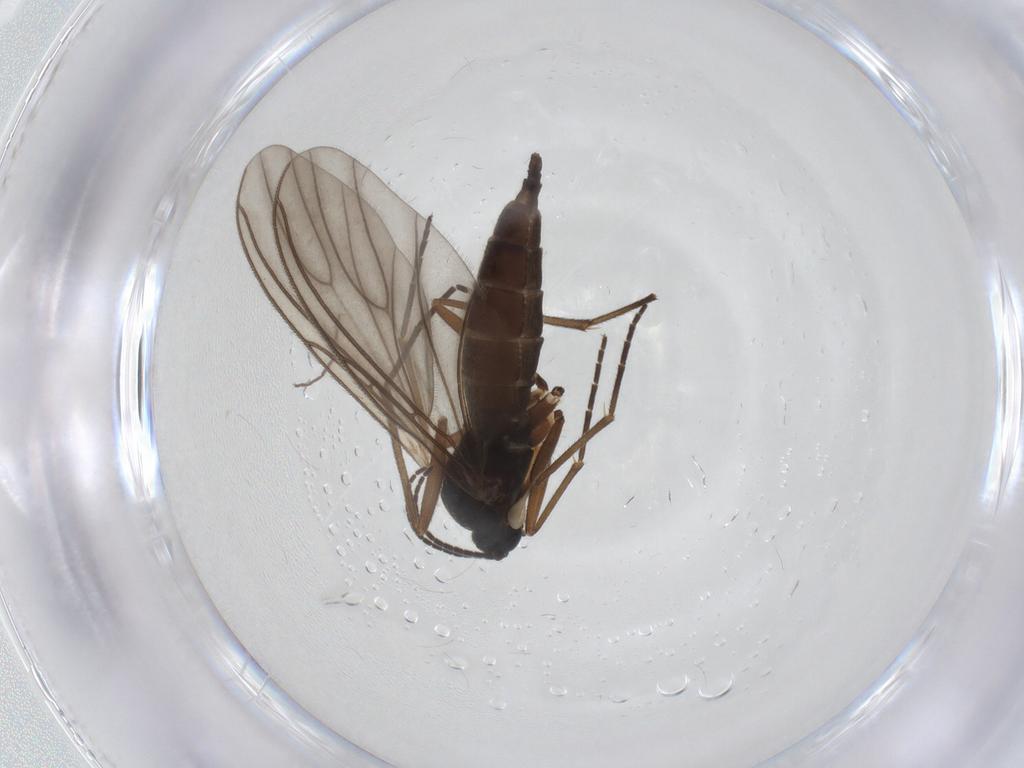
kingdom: Animalia
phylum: Arthropoda
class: Insecta
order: Diptera
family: Sciaridae
